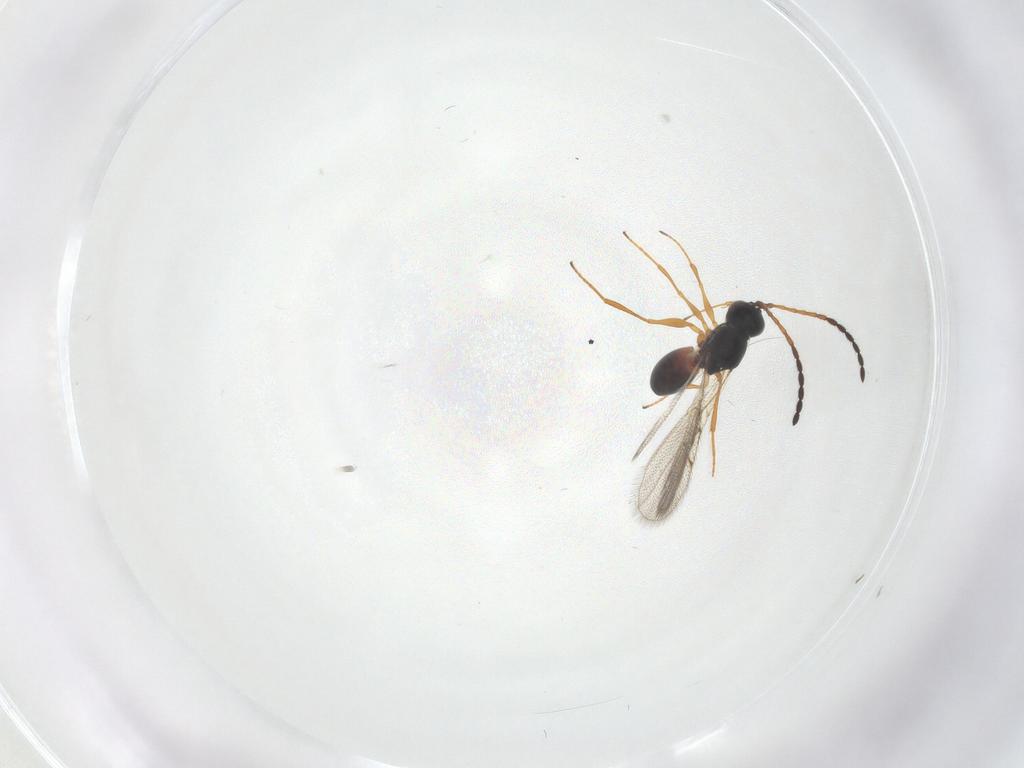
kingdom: Animalia
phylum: Arthropoda
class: Insecta
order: Hymenoptera
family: Figitidae
